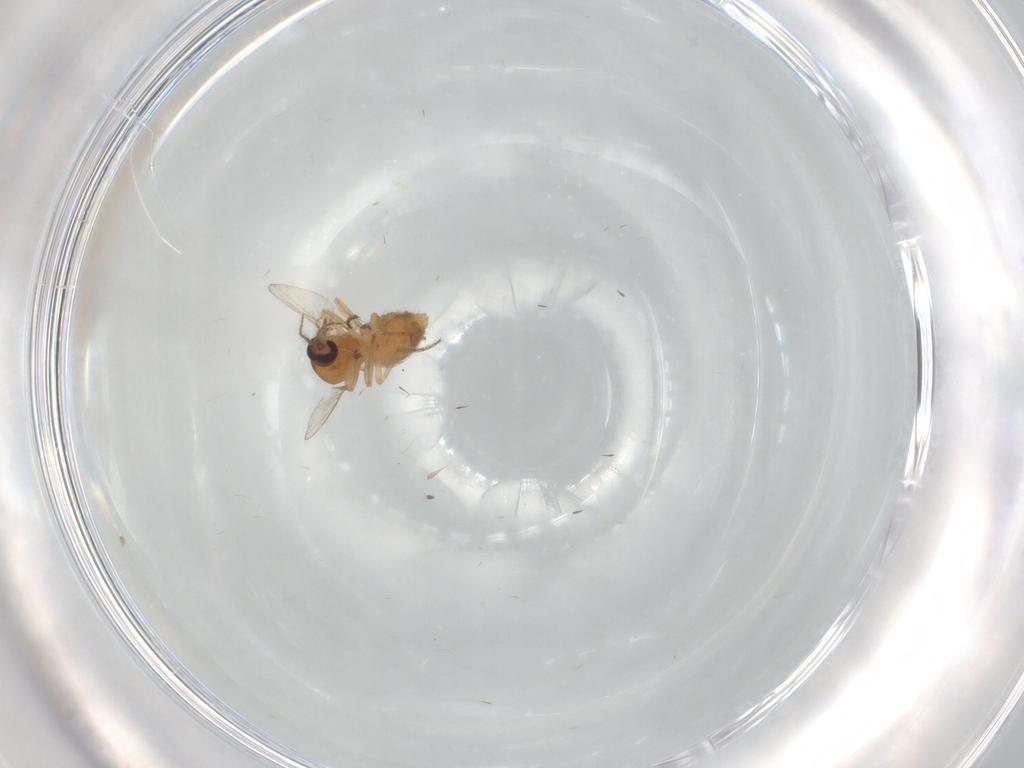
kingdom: Animalia
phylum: Arthropoda
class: Insecta
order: Diptera
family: Ceratopogonidae
